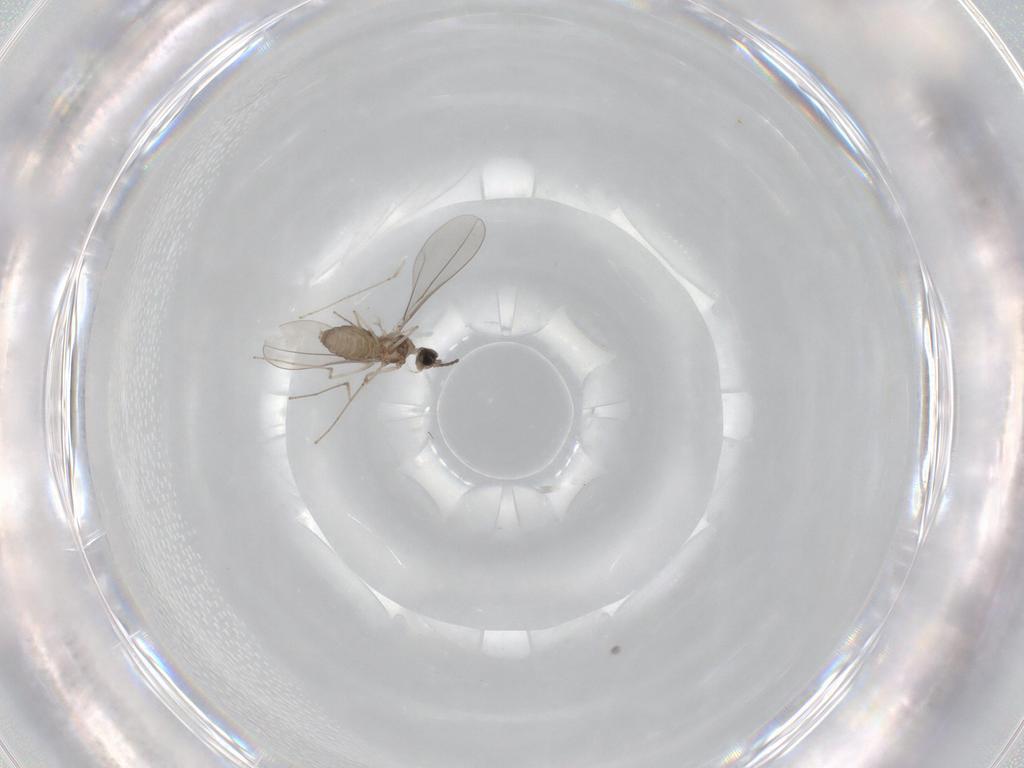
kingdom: Animalia
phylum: Arthropoda
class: Insecta
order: Diptera
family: Cecidomyiidae
